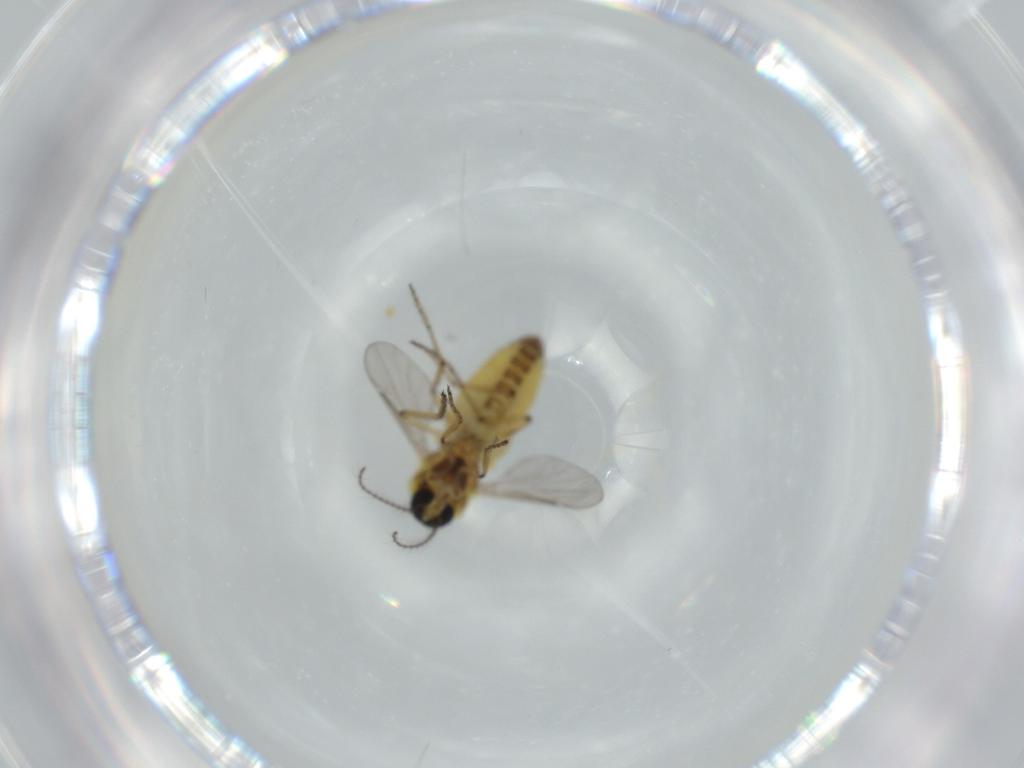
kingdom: Animalia
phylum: Arthropoda
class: Insecta
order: Diptera
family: Ceratopogonidae
